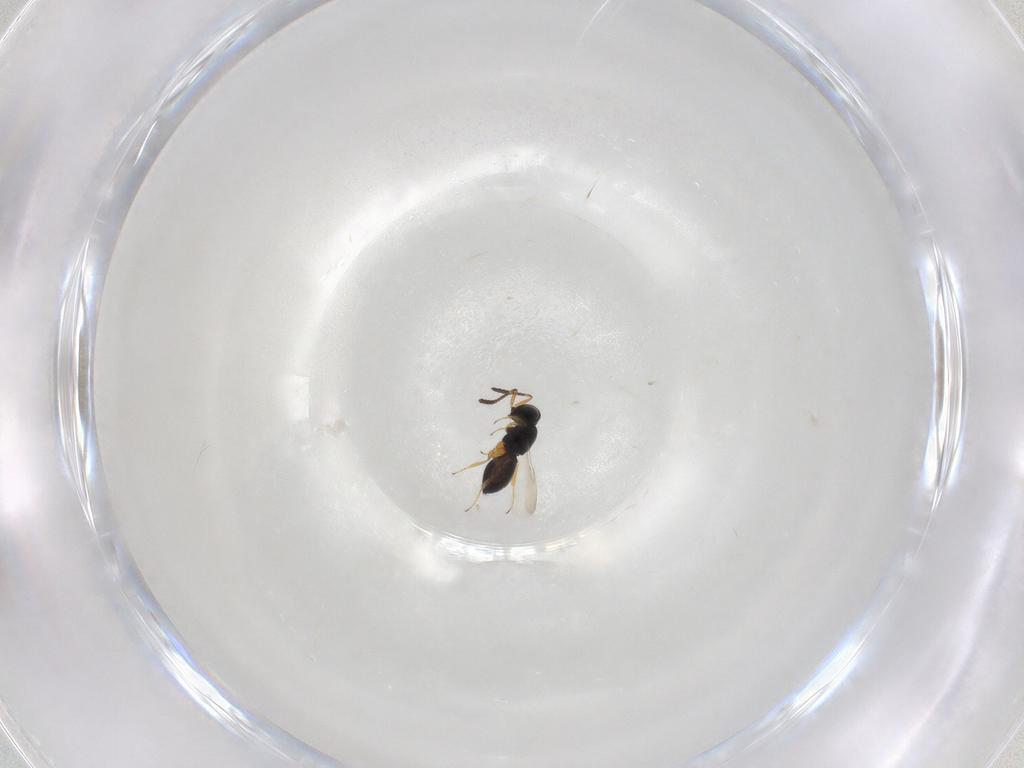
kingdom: Animalia
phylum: Arthropoda
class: Insecta
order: Hymenoptera
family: Scelionidae
